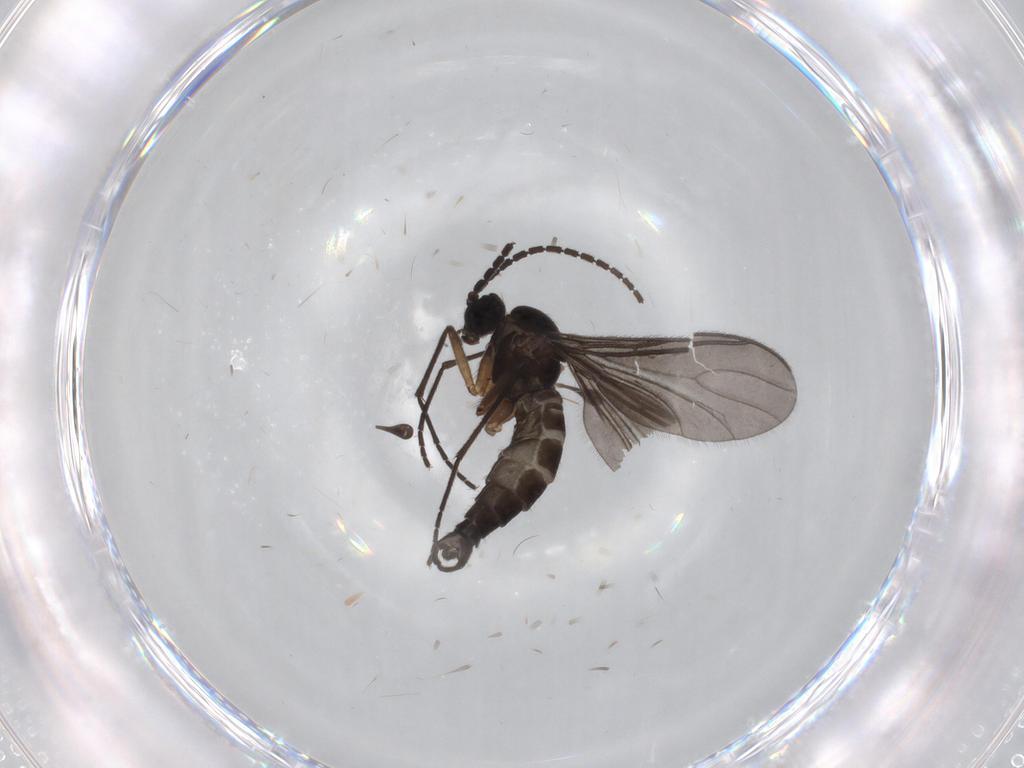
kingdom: Animalia
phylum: Arthropoda
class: Insecta
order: Diptera
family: Sciaridae
